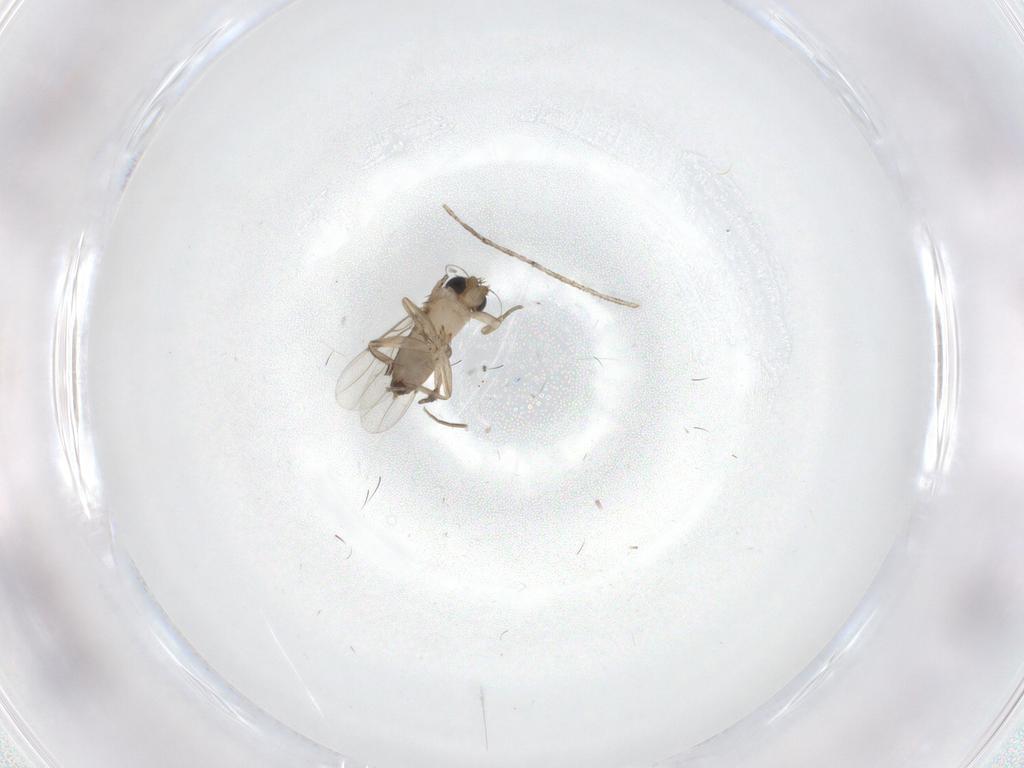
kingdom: Animalia
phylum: Arthropoda
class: Insecta
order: Diptera
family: Phoridae
